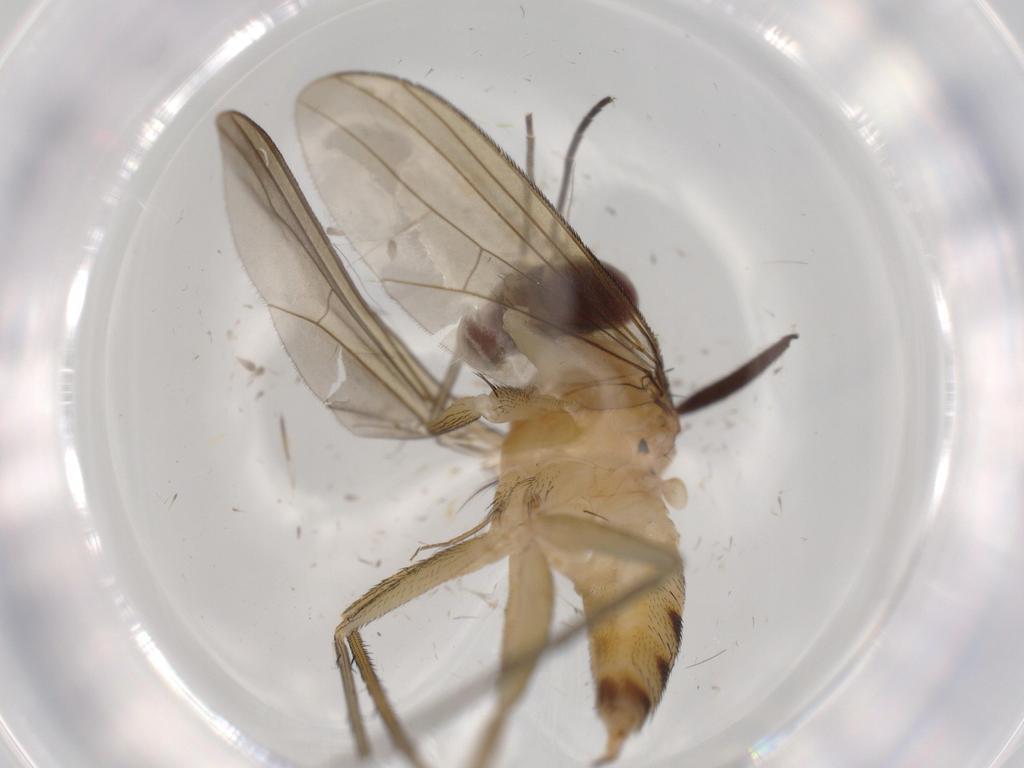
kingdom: Animalia
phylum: Arthropoda
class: Insecta
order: Diptera
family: Dolichopodidae
